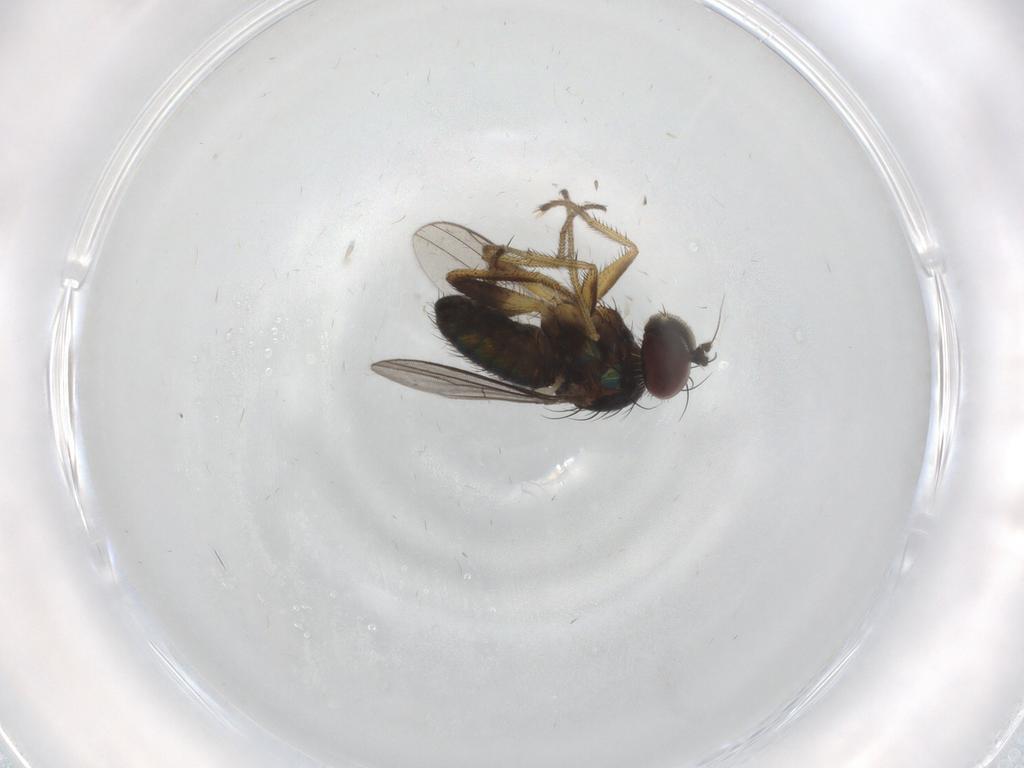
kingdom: Animalia
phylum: Arthropoda
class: Insecta
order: Diptera
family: Dolichopodidae
